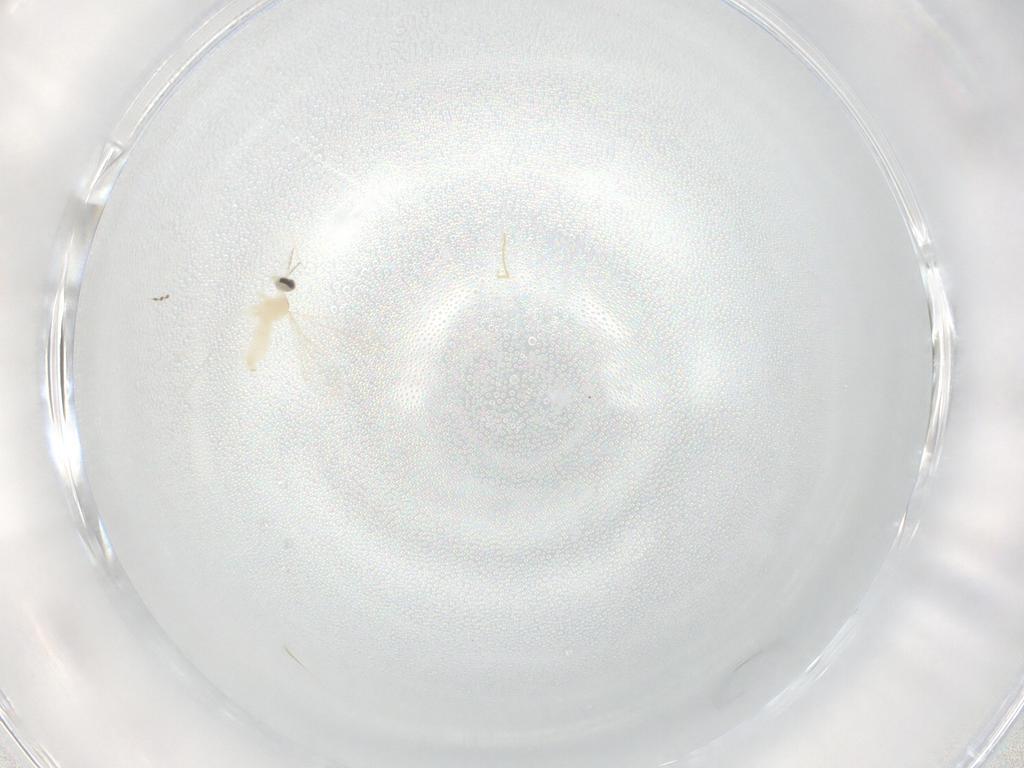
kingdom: Animalia
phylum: Arthropoda
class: Insecta
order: Diptera
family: Cecidomyiidae
